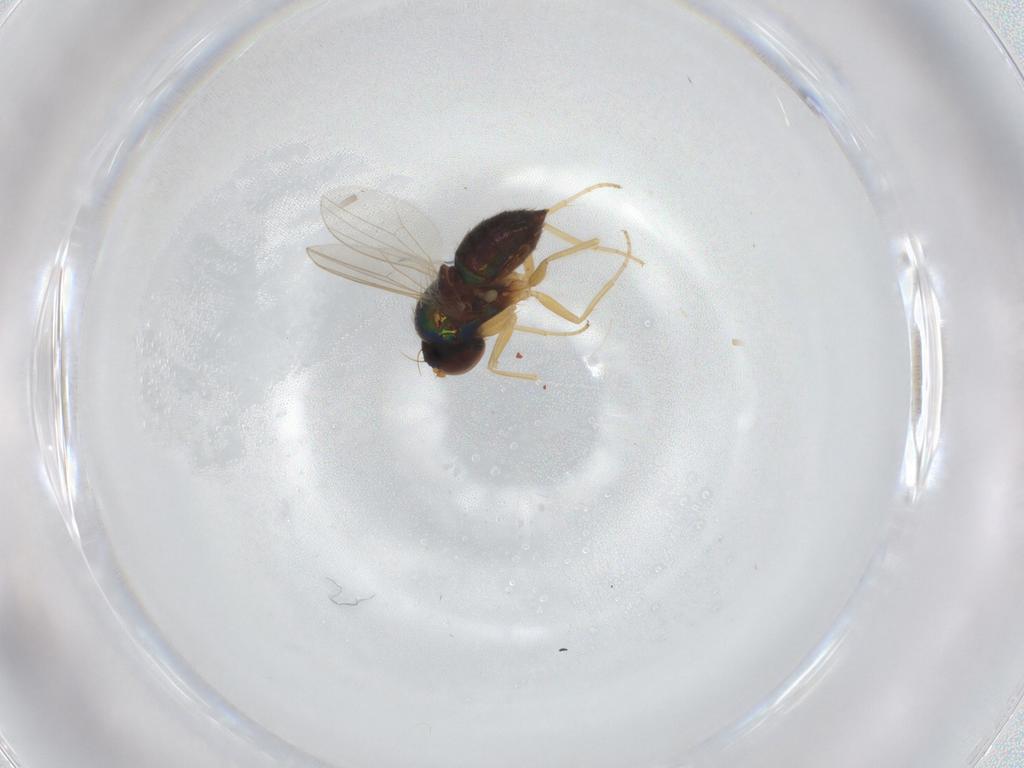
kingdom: Animalia
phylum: Arthropoda
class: Insecta
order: Diptera
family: Dolichopodidae
